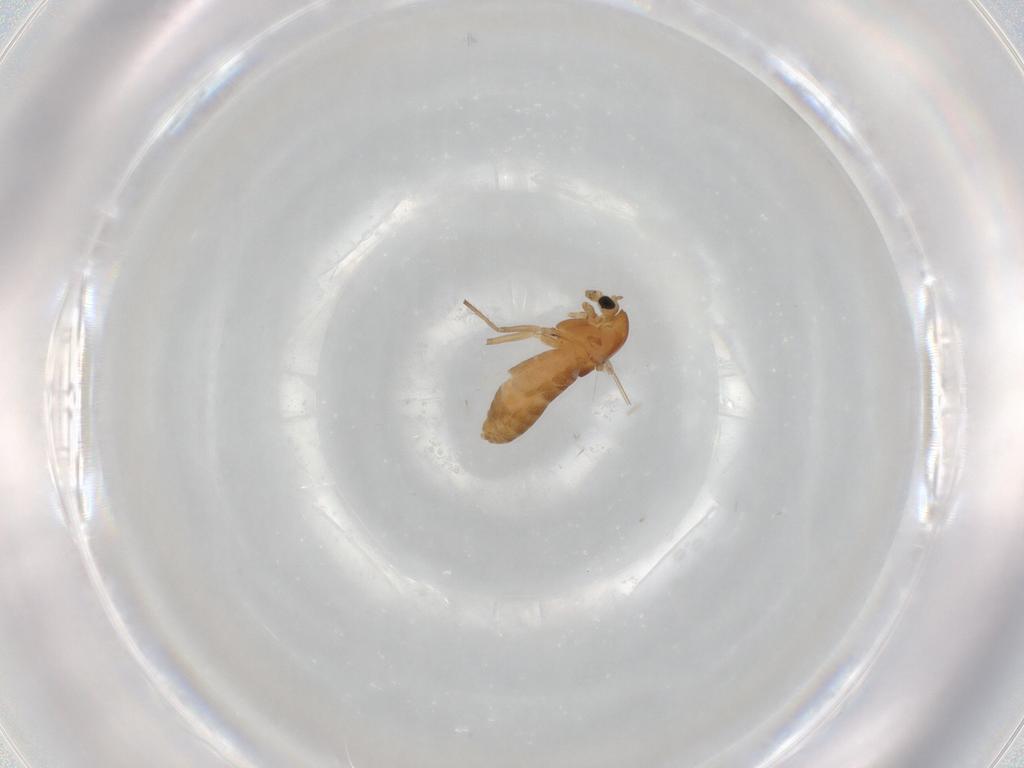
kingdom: Animalia
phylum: Arthropoda
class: Insecta
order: Diptera
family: Chironomidae
